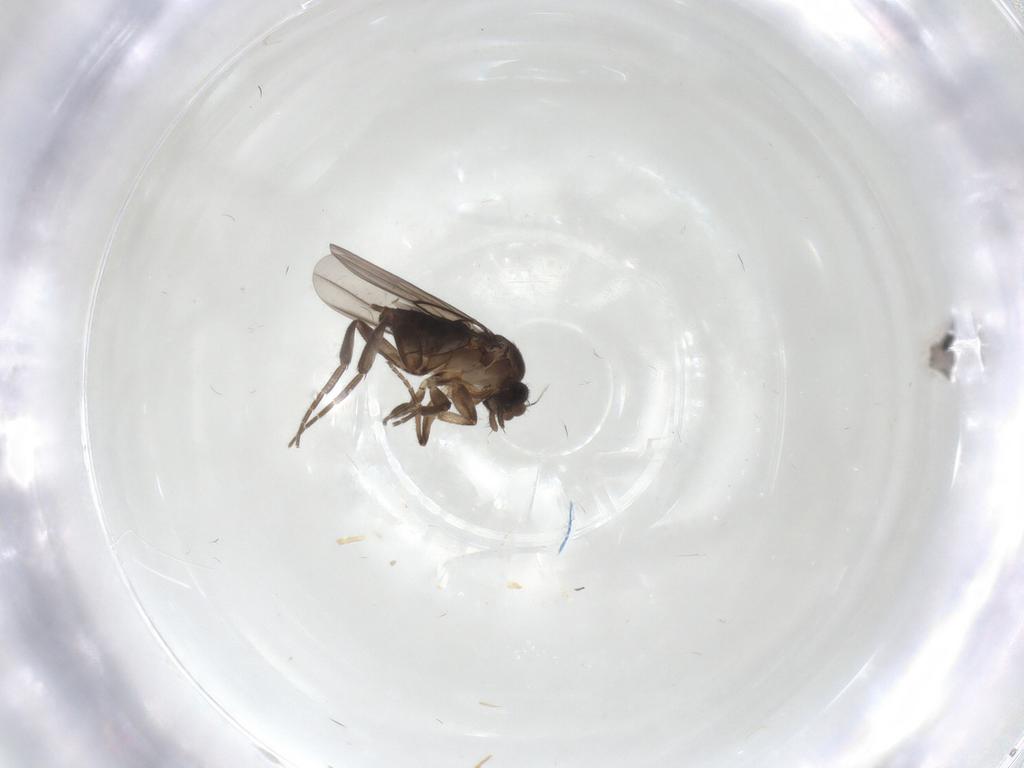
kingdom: Animalia
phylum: Arthropoda
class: Insecta
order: Diptera
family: Phoridae
